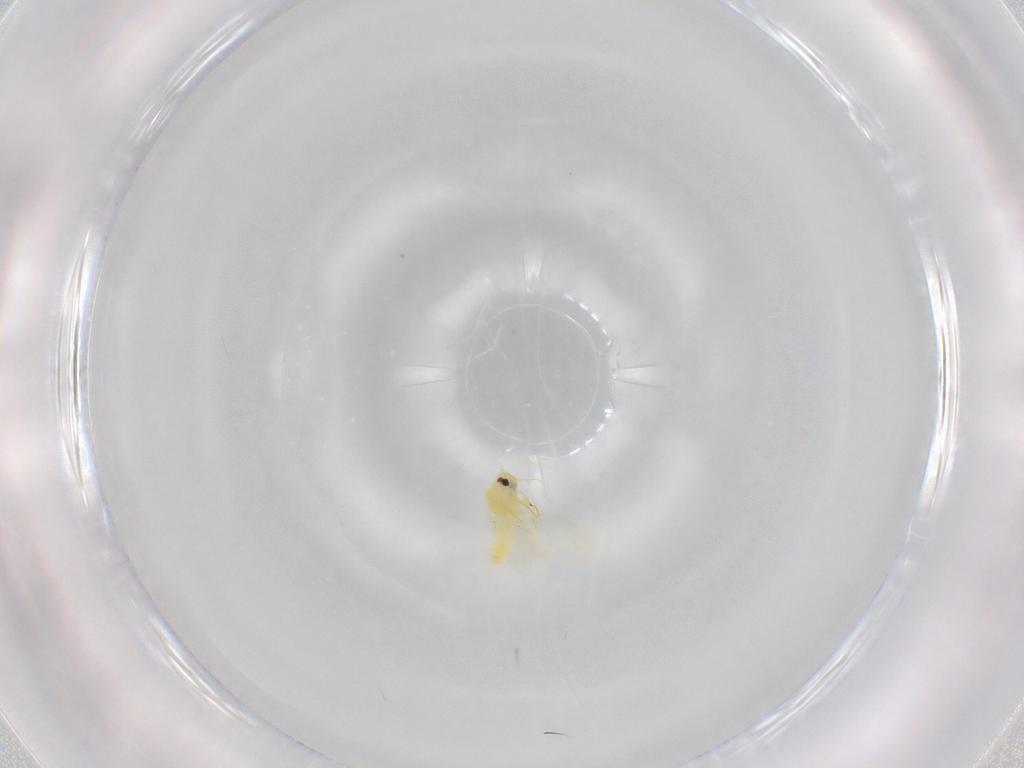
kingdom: Animalia
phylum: Arthropoda
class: Insecta
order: Hemiptera
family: Aleyrodidae
